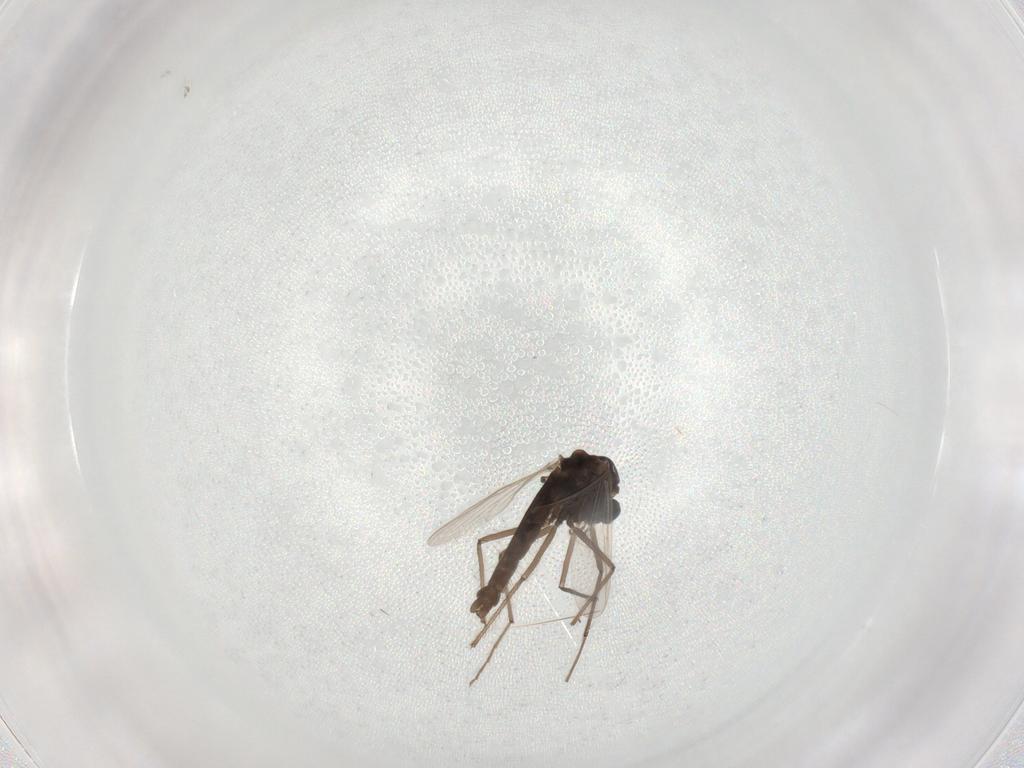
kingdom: Animalia
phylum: Arthropoda
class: Insecta
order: Diptera
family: Chironomidae
